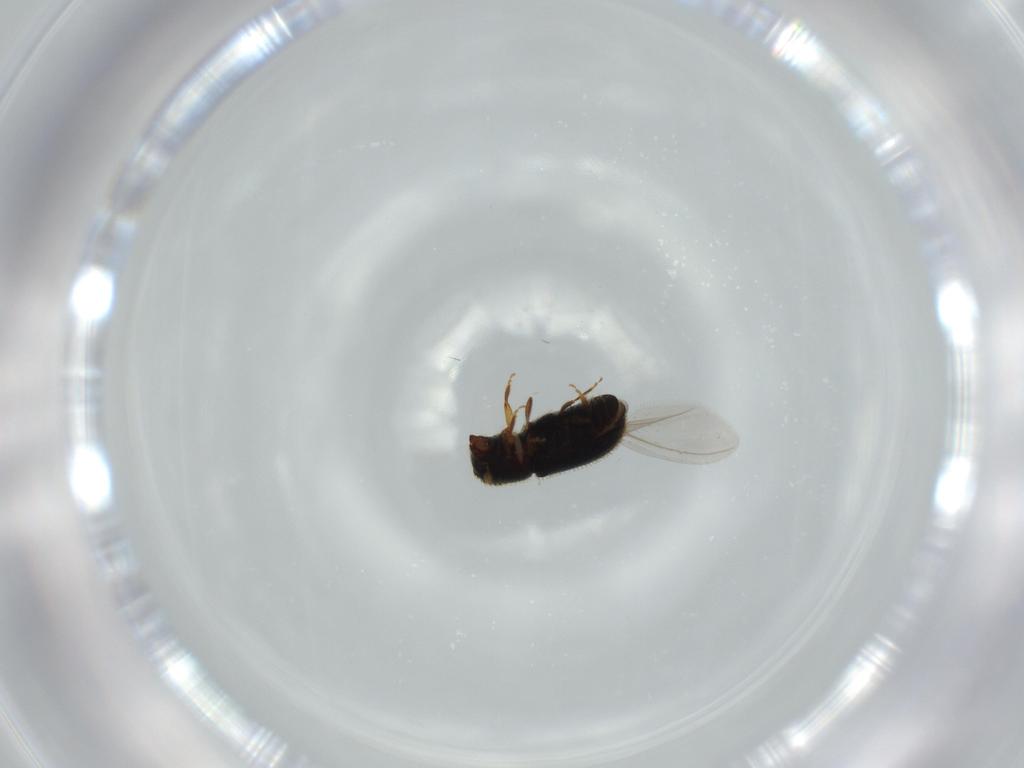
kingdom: Animalia
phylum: Arthropoda
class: Insecta
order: Coleoptera
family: Curculionidae
